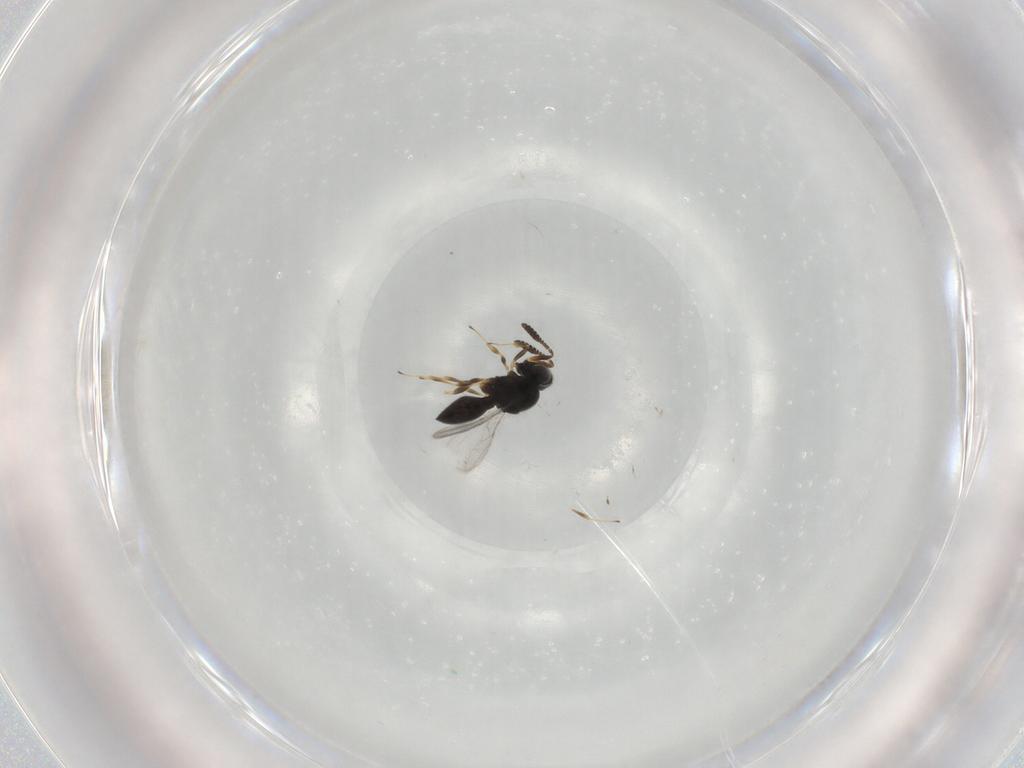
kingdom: Animalia
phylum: Arthropoda
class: Insecta
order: Hymenoptera
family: Scelionidae
